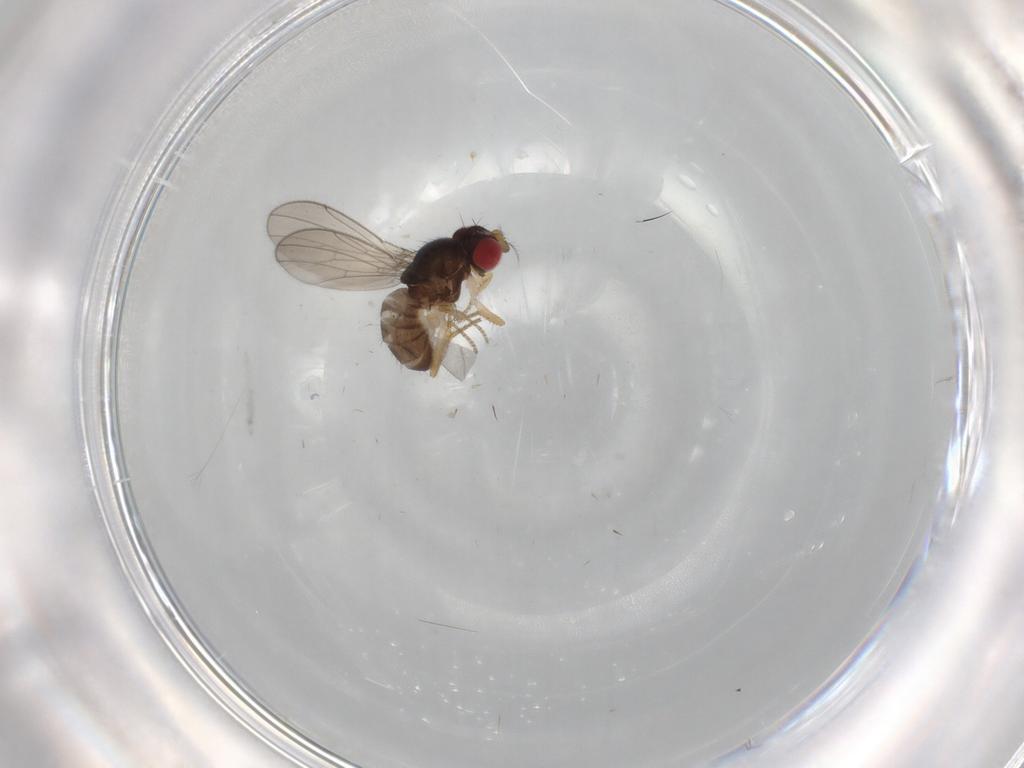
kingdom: Animalia
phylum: Arthropoda
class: Insecta
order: Diptera
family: Drosophilidae
